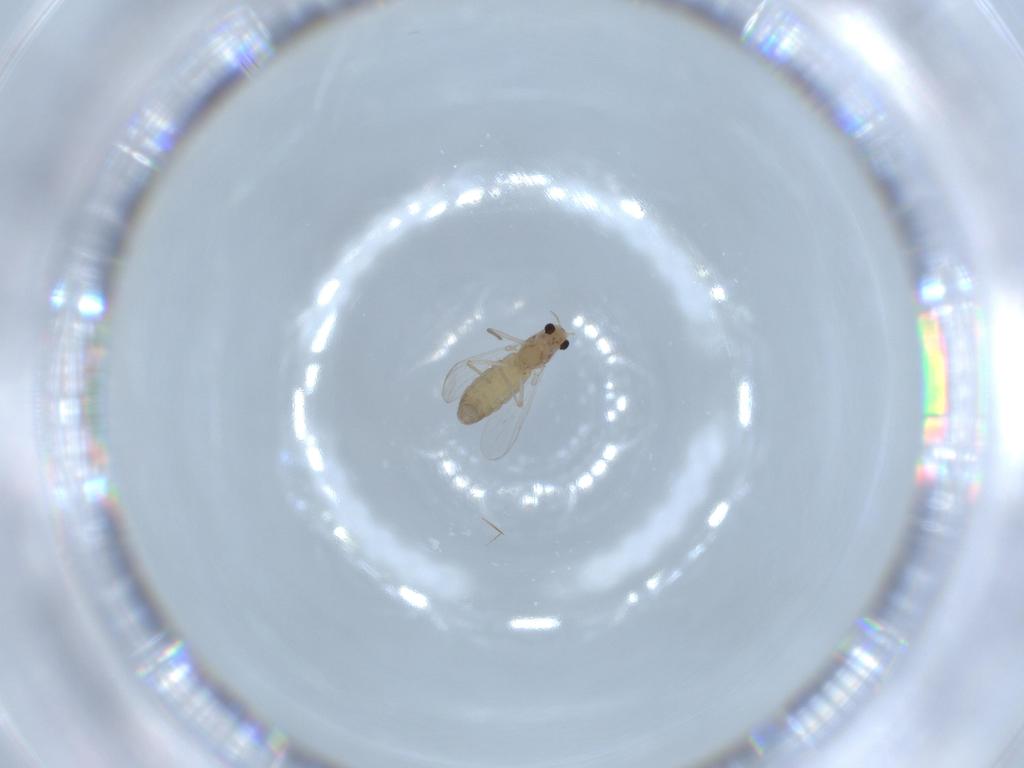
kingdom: Animalia
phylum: Arthropoda
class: Insecta
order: Diptera
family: Chironomidae
